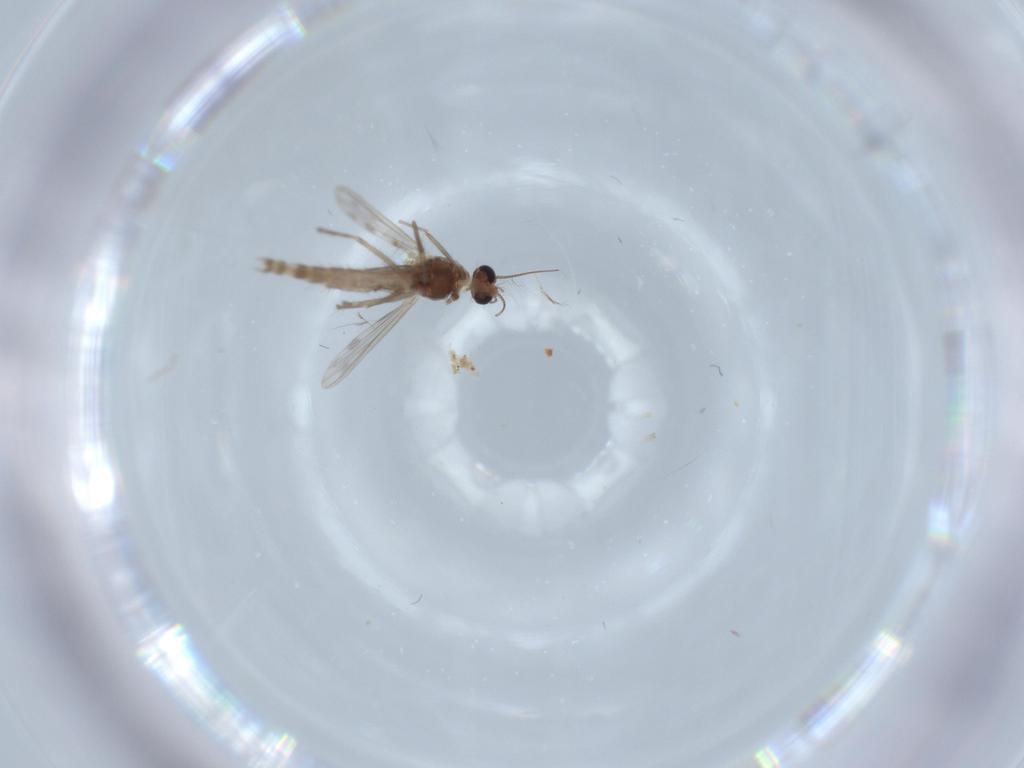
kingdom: Animalia
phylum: Arthropoda
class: Insecta
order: Diptera
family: Chironomidae
